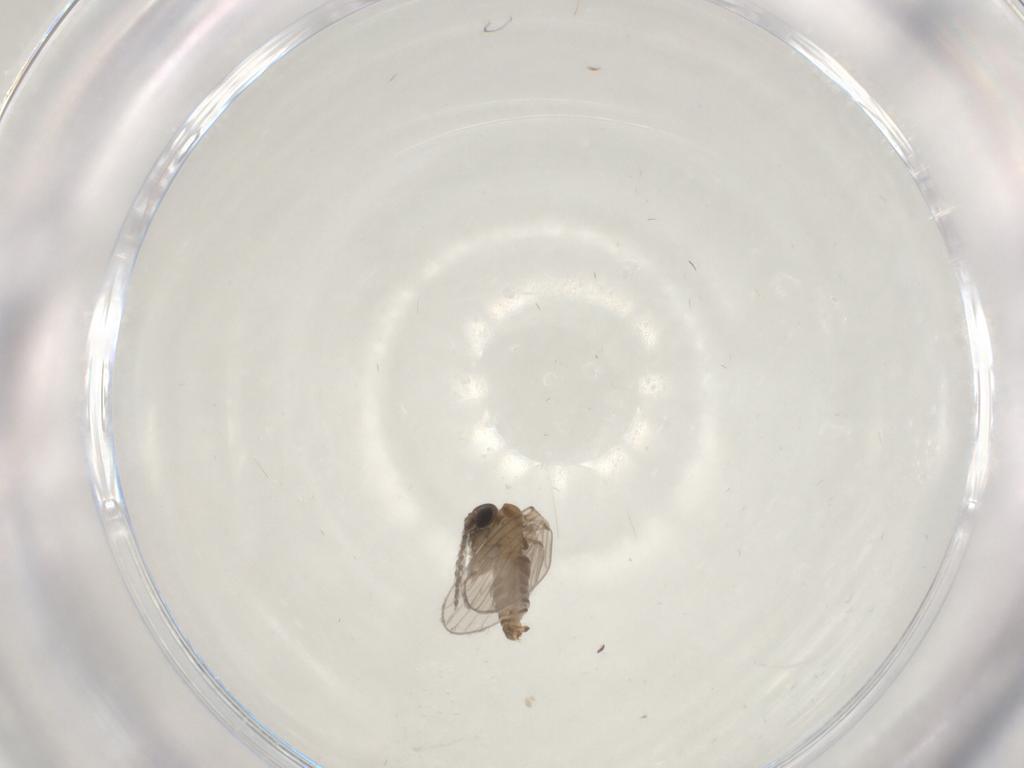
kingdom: Animalia
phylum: Arthropoda
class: Insecta
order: Diptera
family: Psychodidae
